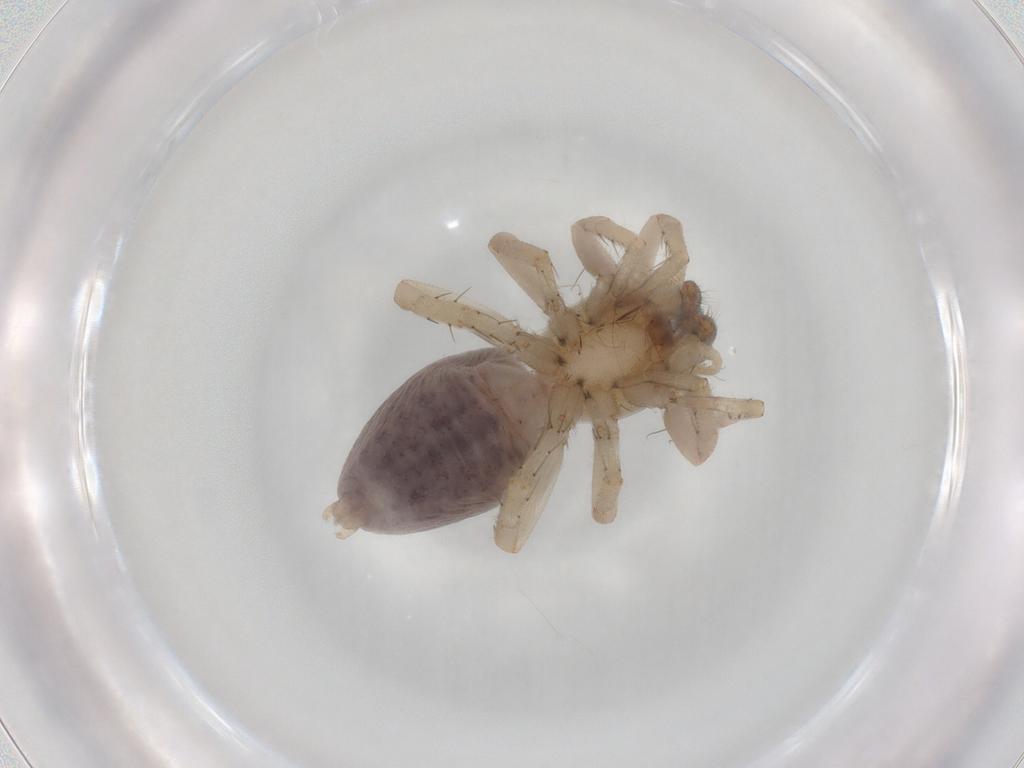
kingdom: Animalia
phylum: Arthropoda
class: Arachnida
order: Araneae
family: Clubionidae
